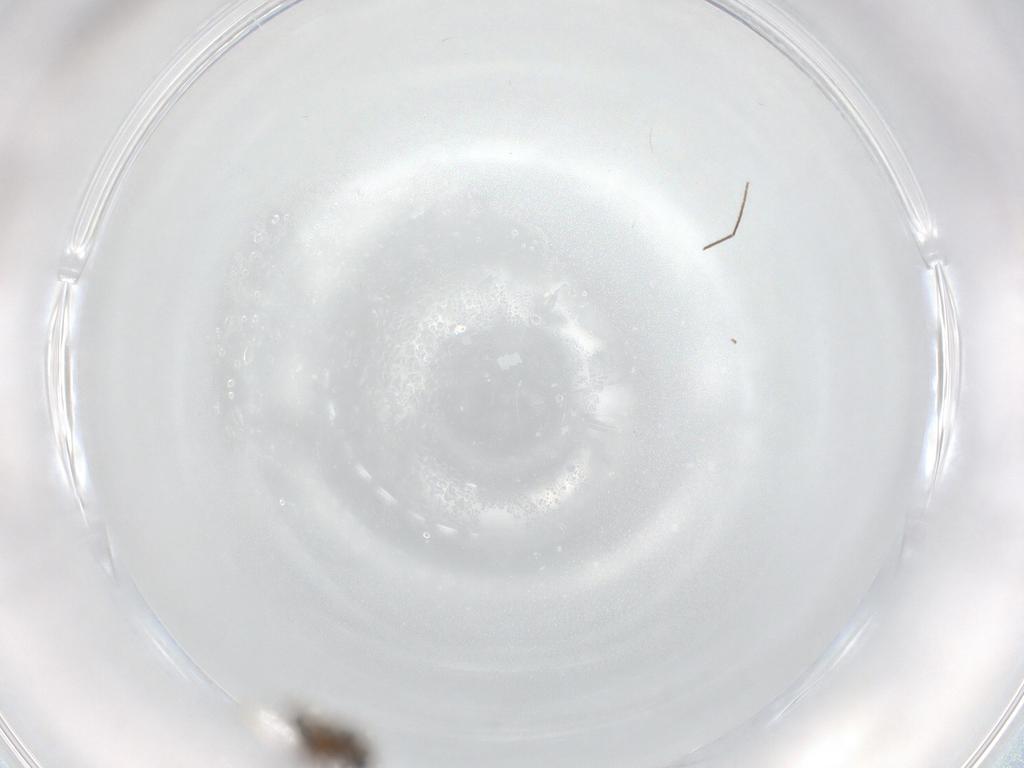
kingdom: Animalia
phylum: Arthropoda
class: Insecta
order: Diptera
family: Chironomidae
